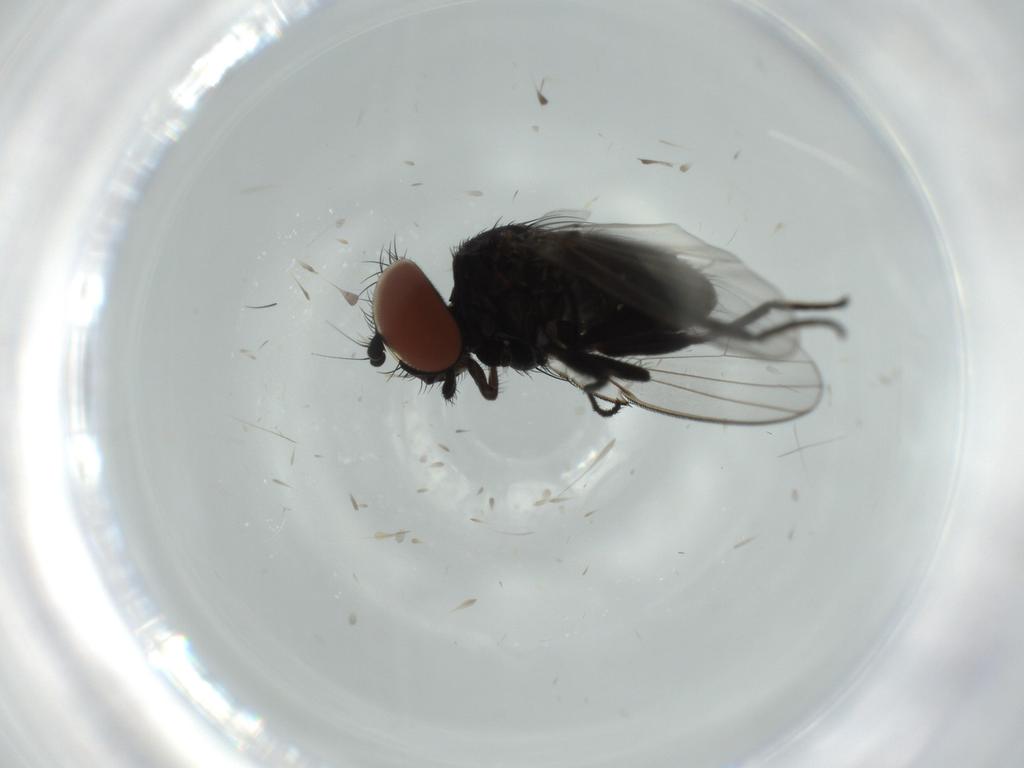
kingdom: Animalia
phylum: Arthropoda
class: Insecta
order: Diptera
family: Milichiidae
